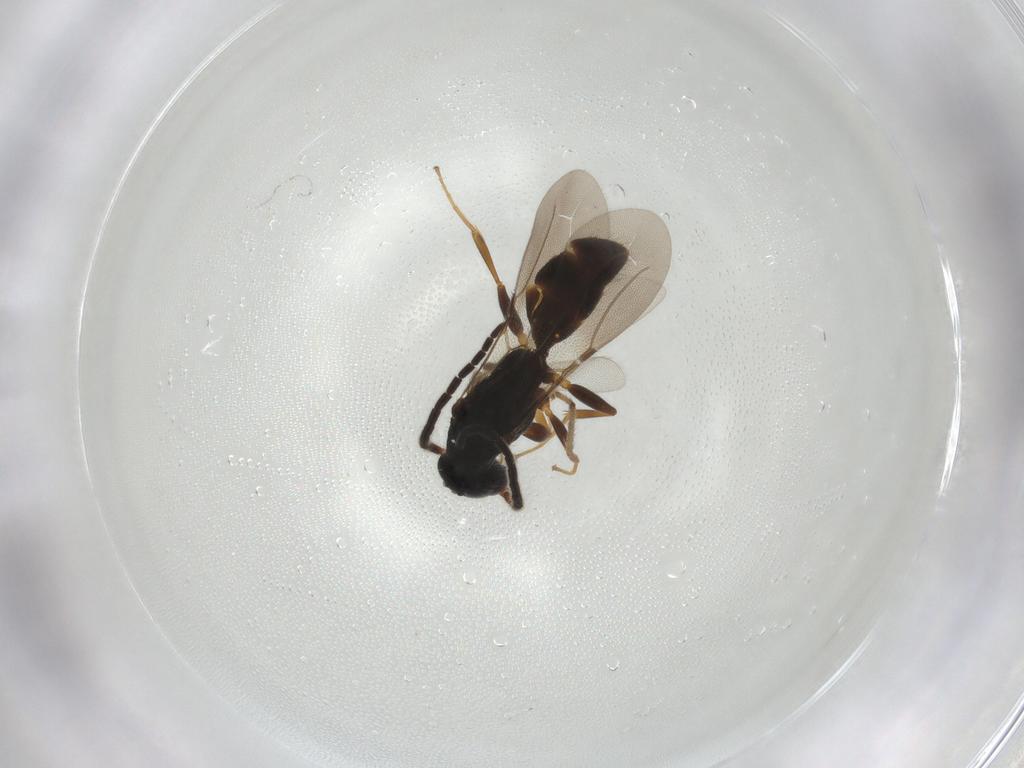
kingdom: Animalia
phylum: Arthropoda
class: Insecta
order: Hymenoptera
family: Bethylidae
